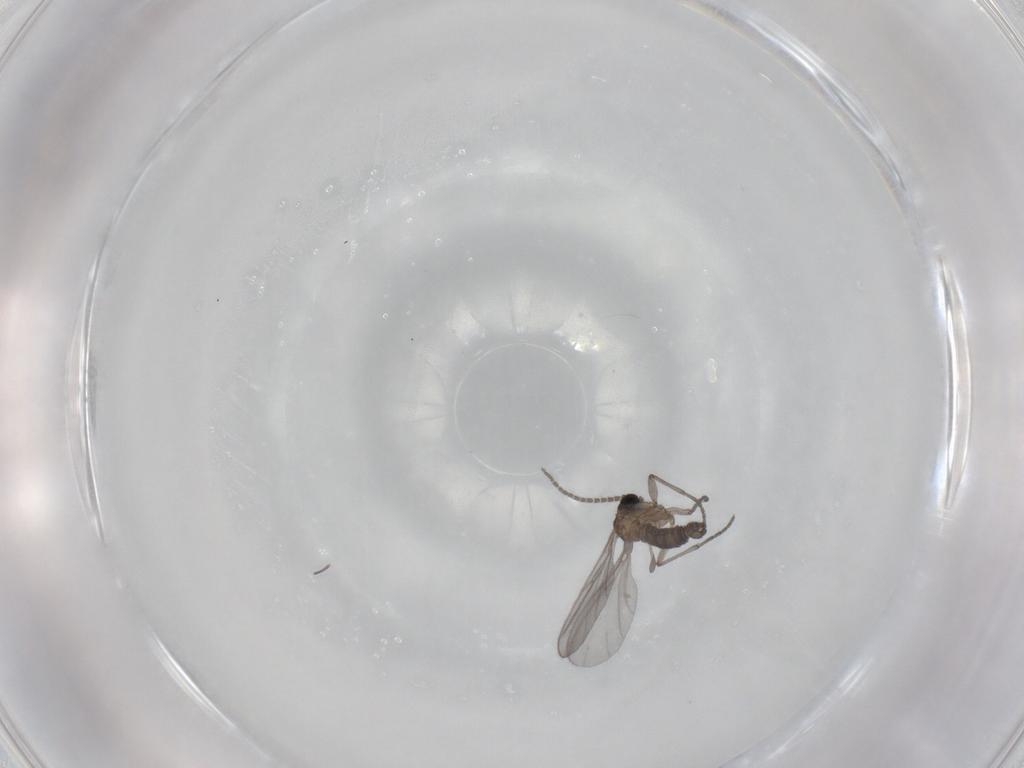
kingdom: Animalia
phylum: Arthropoda
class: Insecta
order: Diptera
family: Sciaridae
